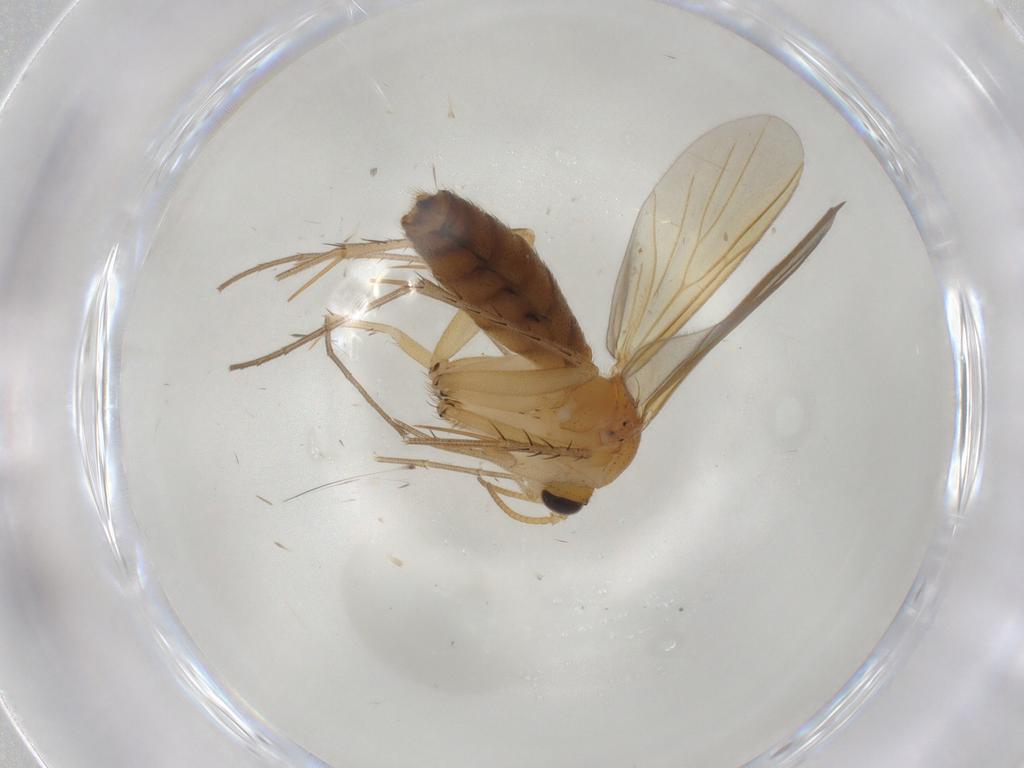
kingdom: Animalia
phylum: Arthropoda
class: Insecta
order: Diptera
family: Mycetophilidae
